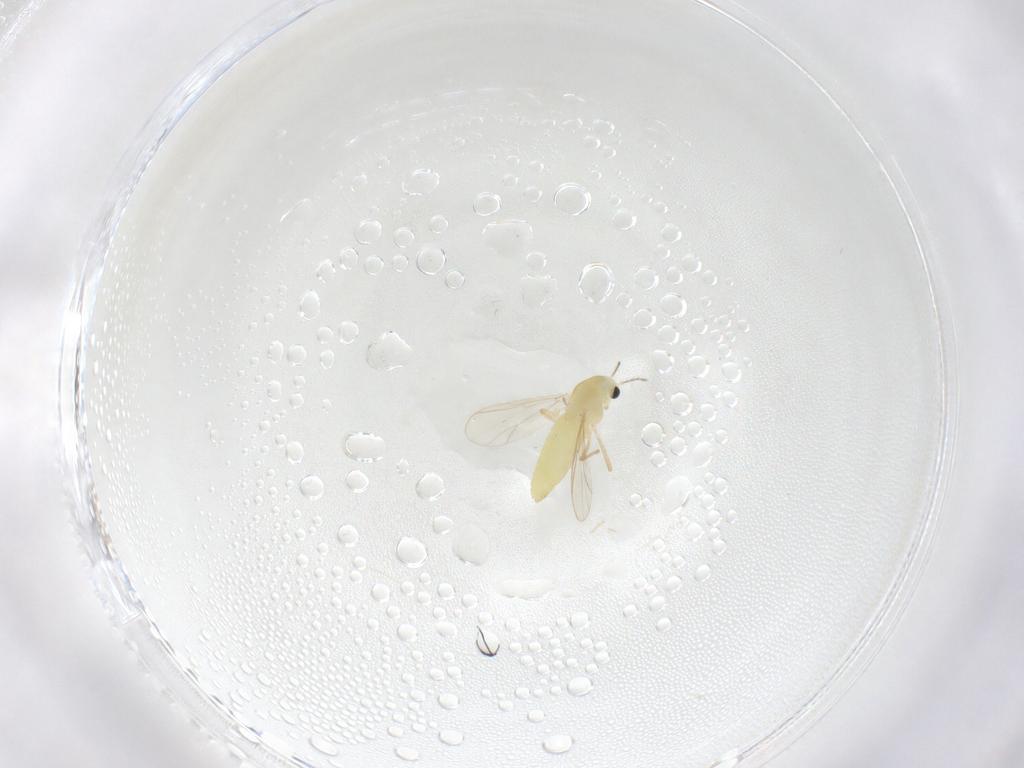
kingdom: Animalia
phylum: Arthropoda
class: Insecta
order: Diptera
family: Chironomidae
